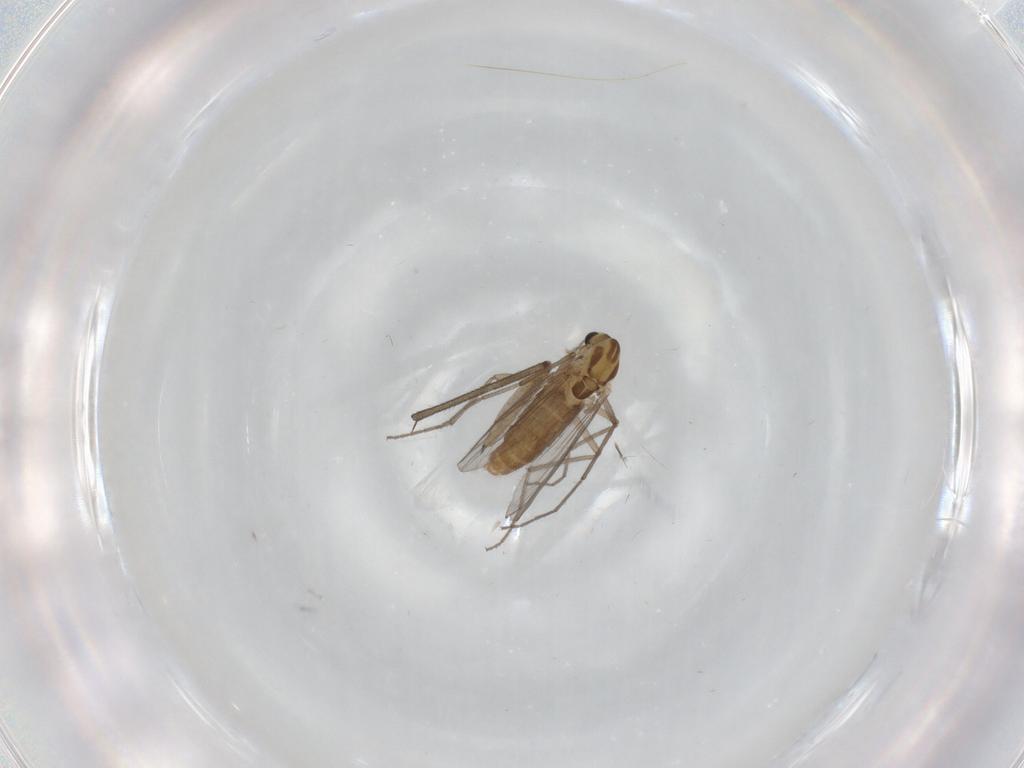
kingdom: Animalia
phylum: Arthropoda
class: Insecta
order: Diptera
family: Chironomidae
